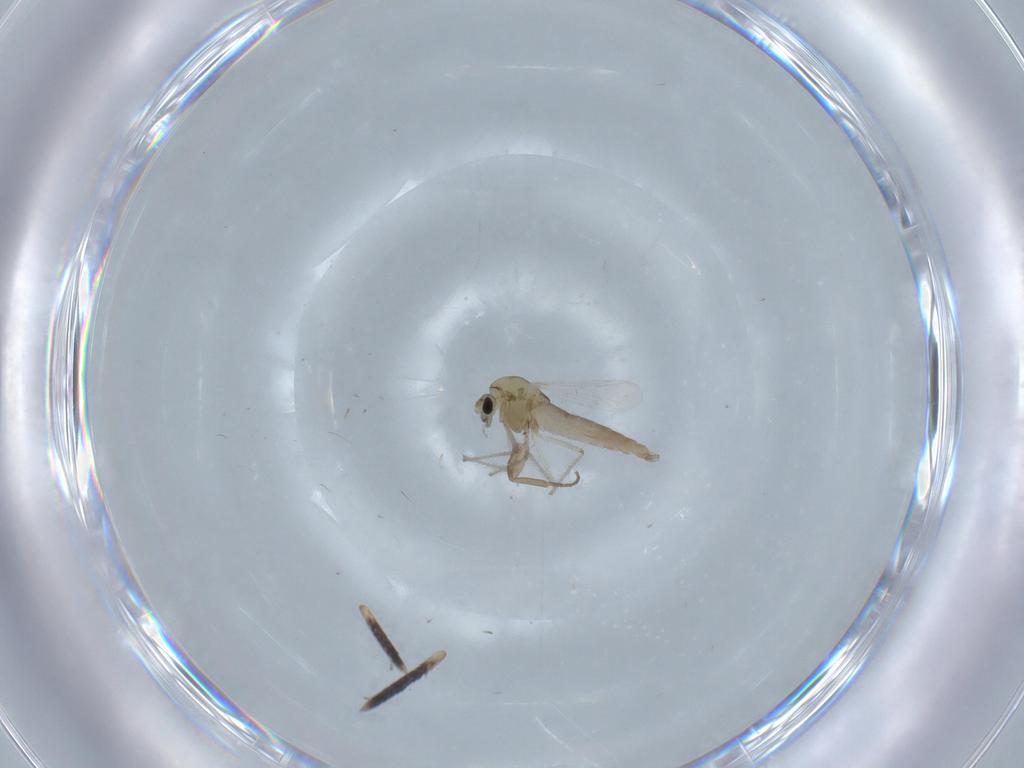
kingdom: Animalia
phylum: Arthropoda
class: Insecta
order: Diptera
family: Chironomidae
